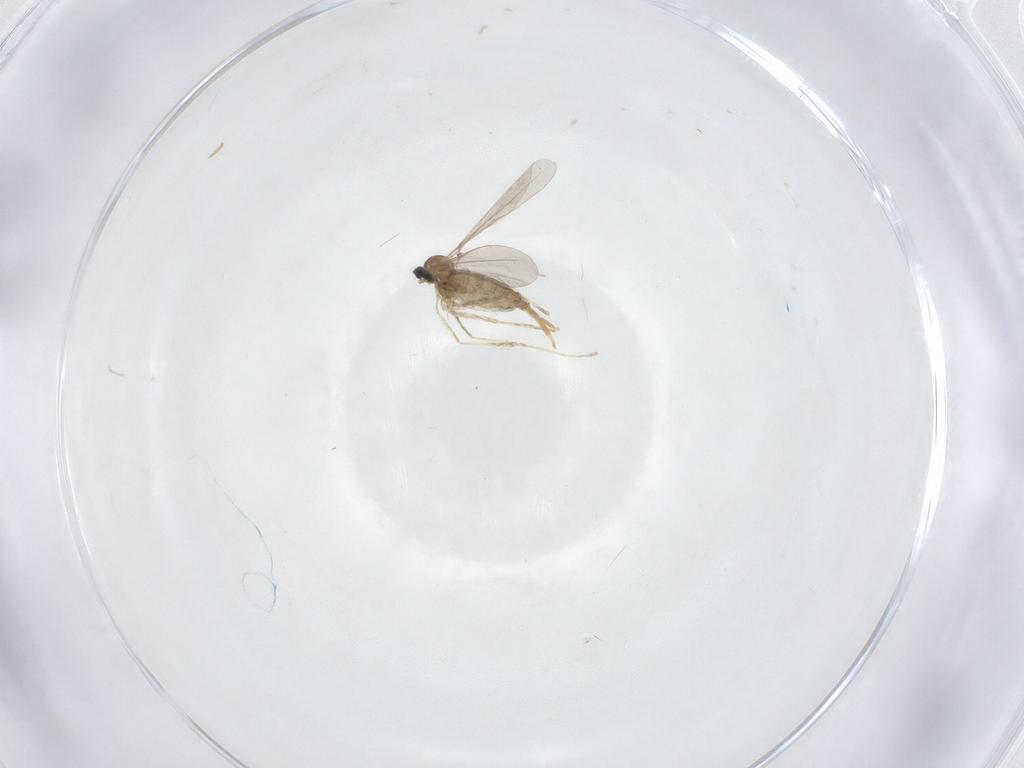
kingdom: Animalia
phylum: Arthropoda
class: Insecta
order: Diptera
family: Cecidomyiidae
